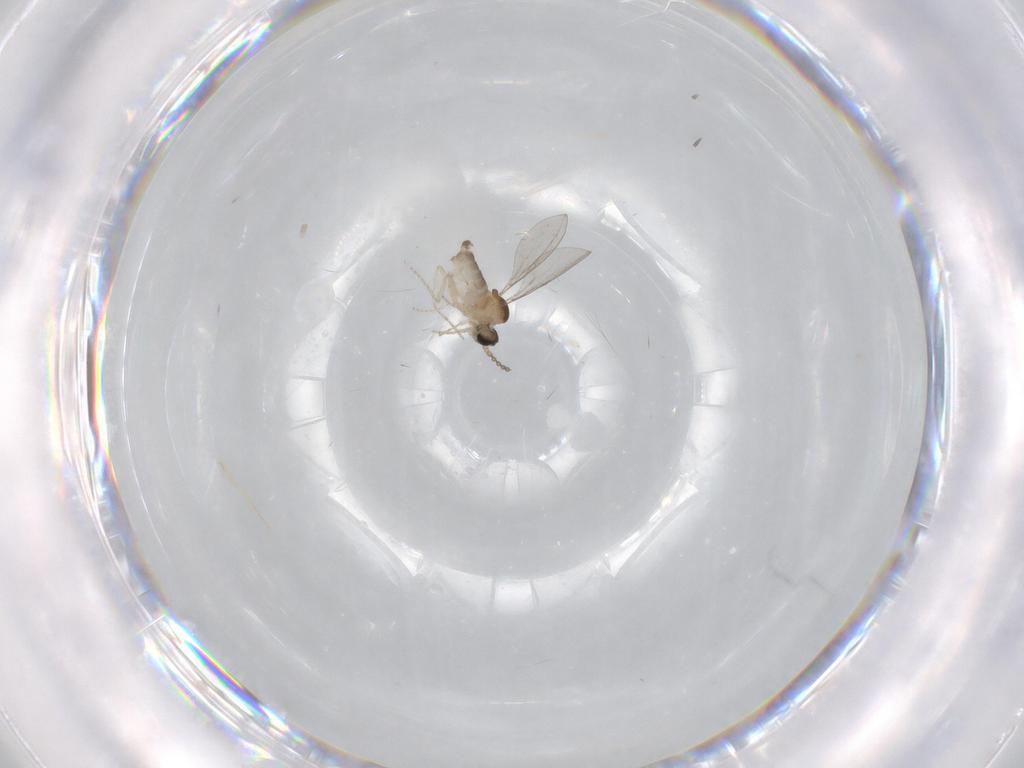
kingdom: Animalia
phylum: Arthropoda
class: Insecta
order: Diptera
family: Cecidomyiidae
